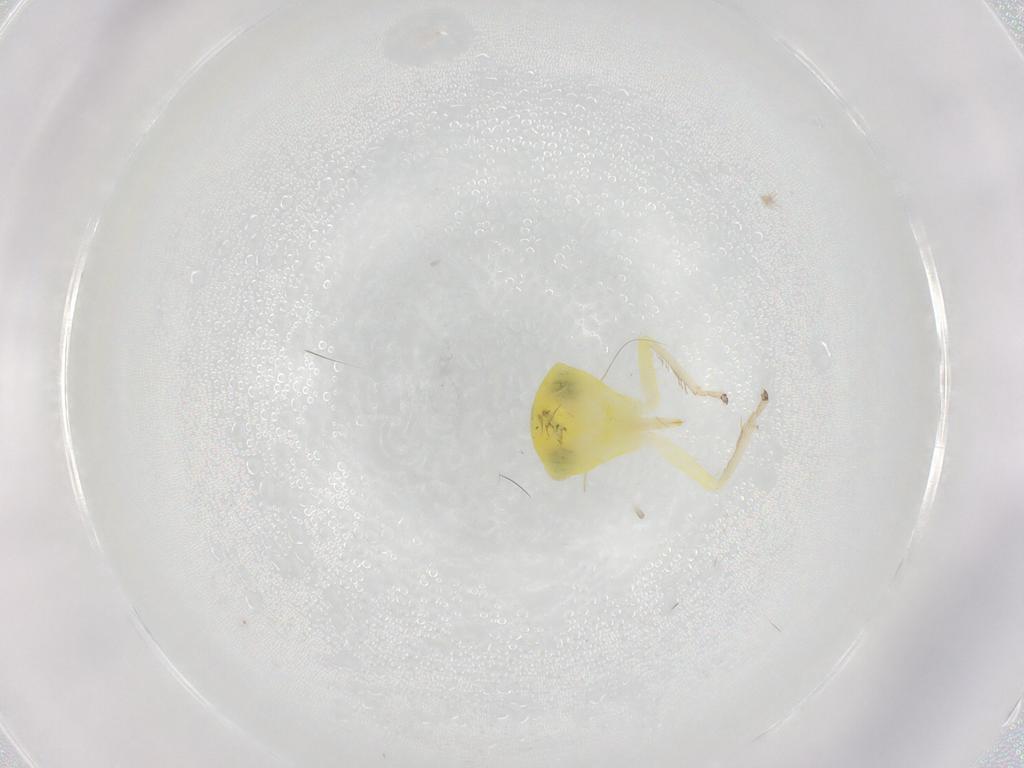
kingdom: Animalia
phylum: Arthropoda
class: Insecta
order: Hemiptera
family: Cicadellidae
